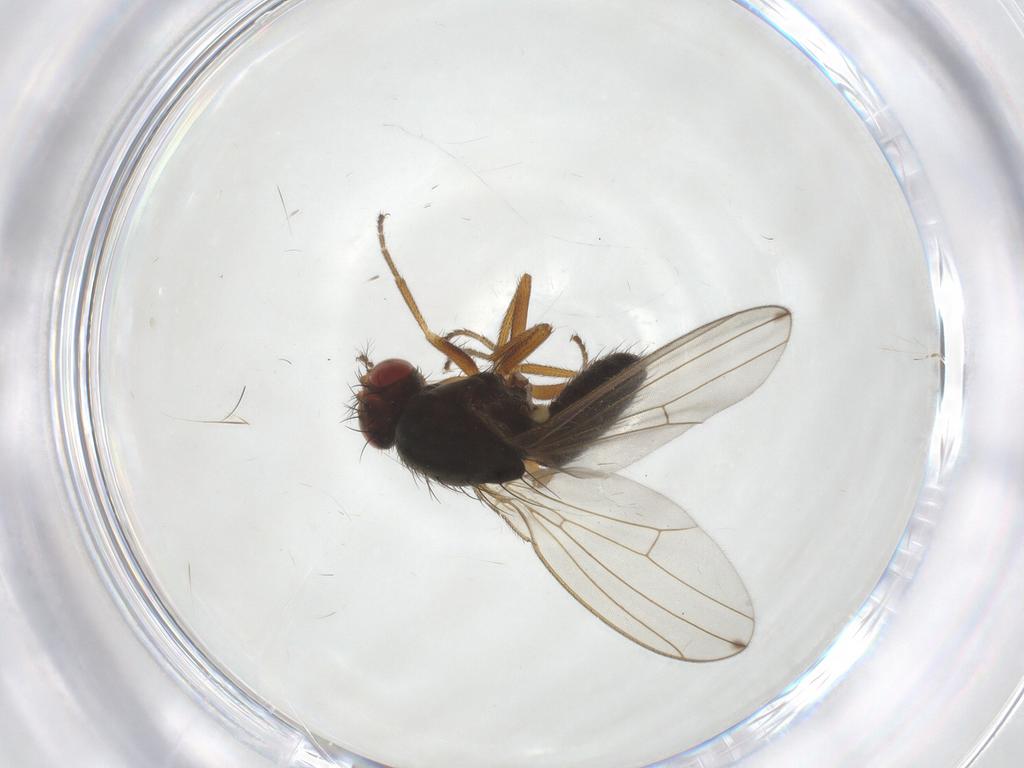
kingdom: Animalia
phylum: Arthropoda
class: Insecta
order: Diptera
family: Drosophilidae
